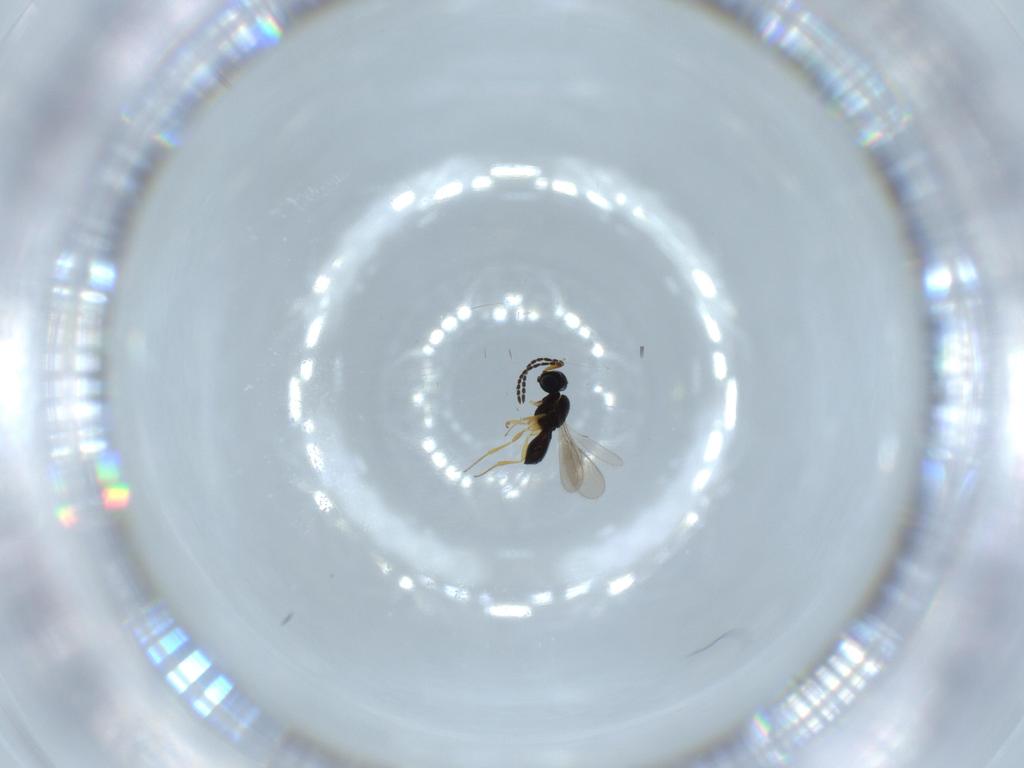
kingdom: Animalia
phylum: Arthropoda
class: Insecta
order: Hymenoptera
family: Scelionidae
